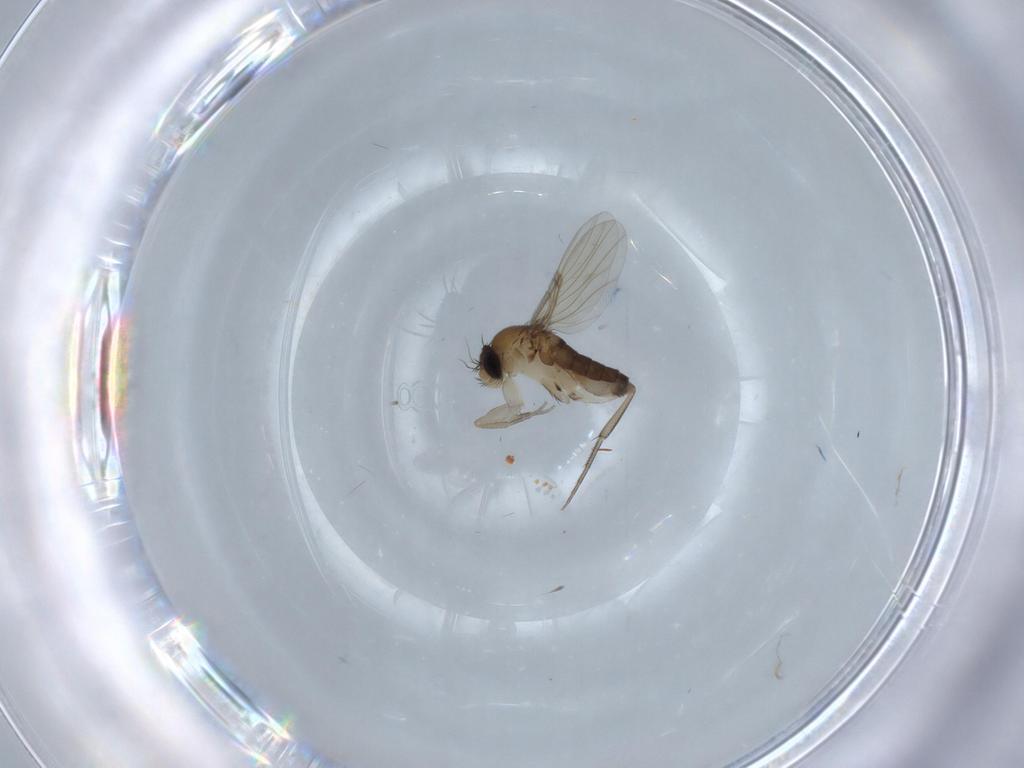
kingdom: Animalia
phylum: Arthropoda
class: Insecta
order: Diptera
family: Phoridae
